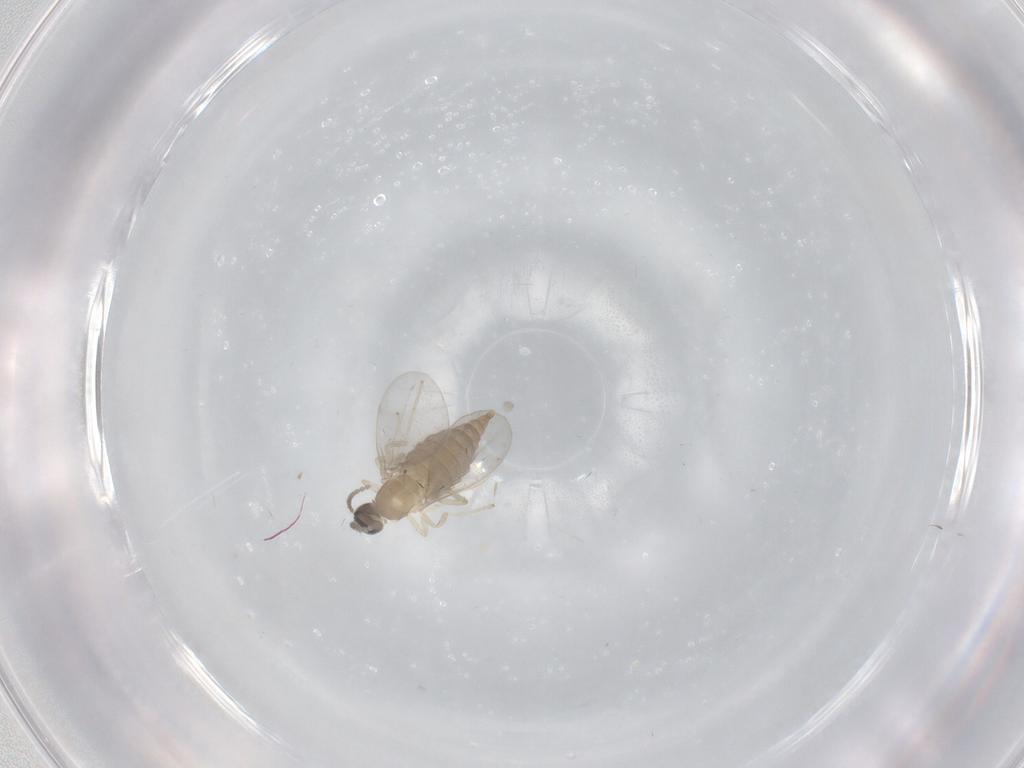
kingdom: Animalia
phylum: Arthropoda
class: Insecta
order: Diptera
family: Cecidomyiidae
